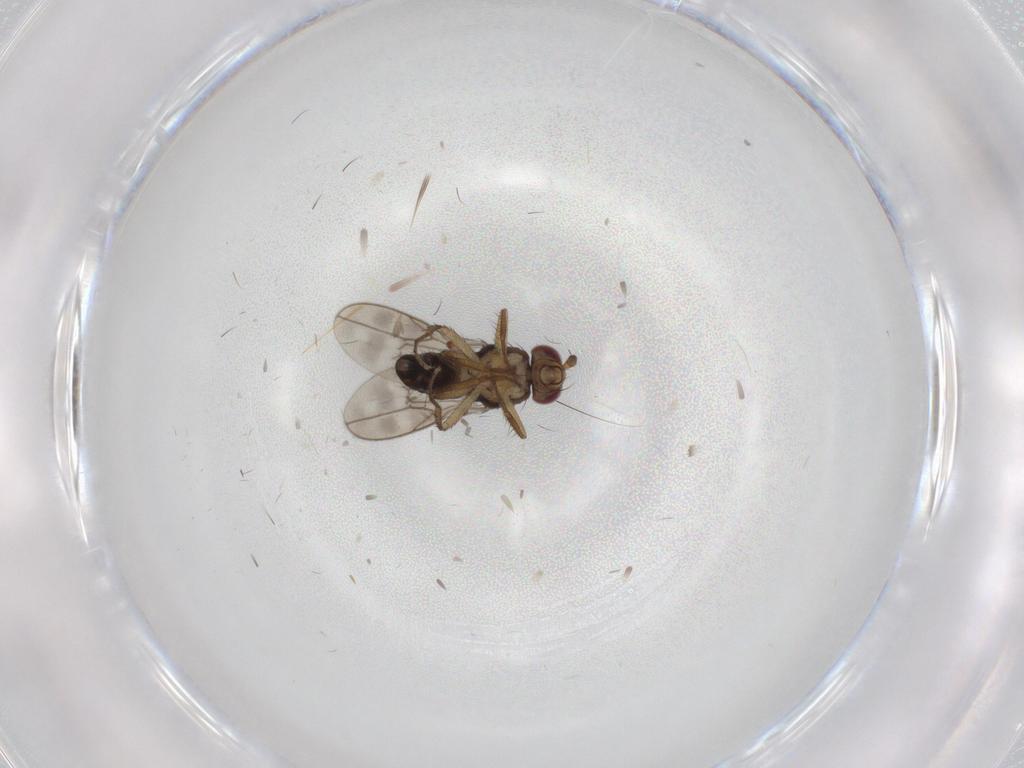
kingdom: Animalia
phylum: Arthropoda
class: Insecta
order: Diptera
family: Sphaeroceridae
